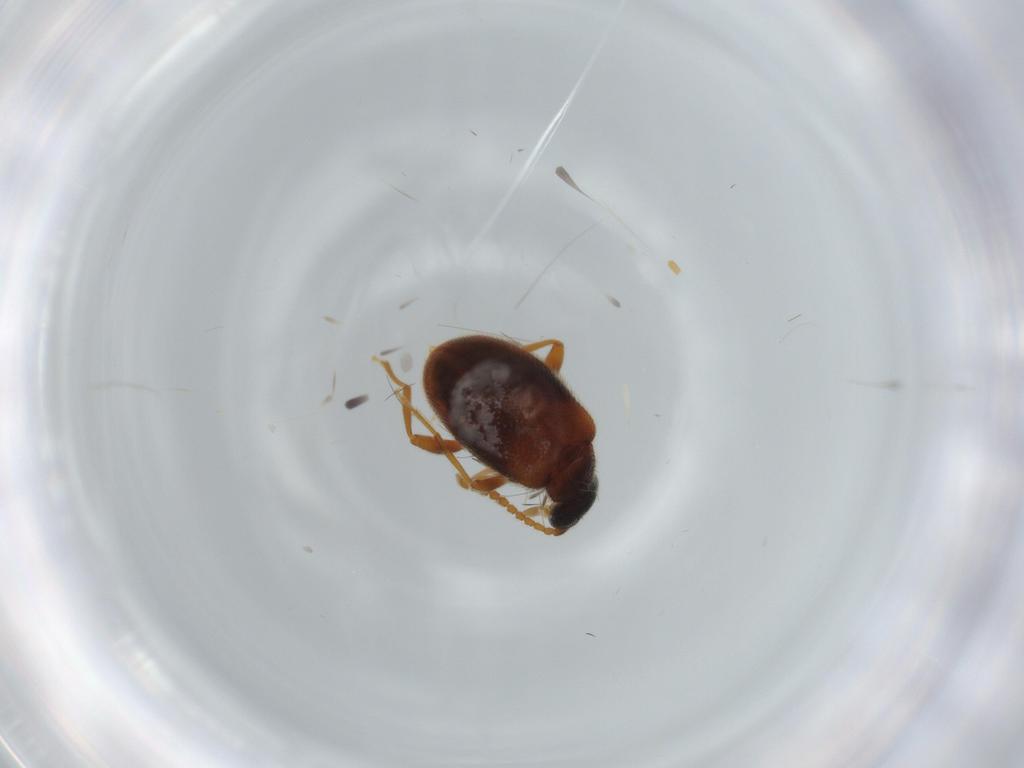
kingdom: Animalia
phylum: Arthropoda
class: Insecta
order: Coleoptera
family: Aderidae
